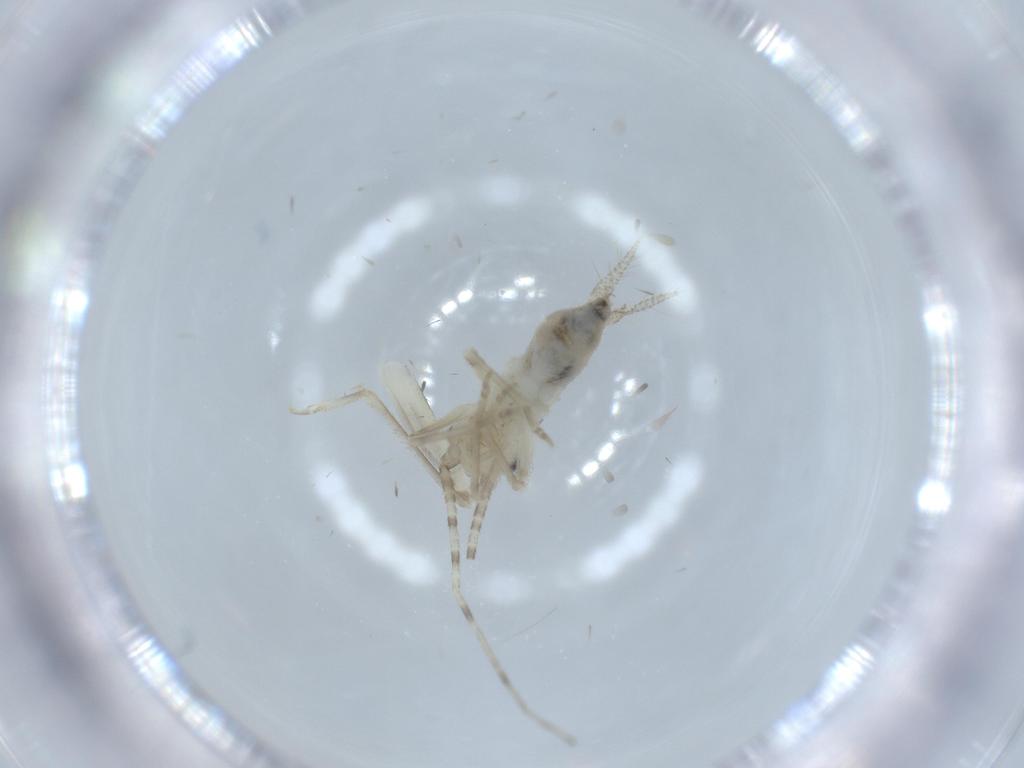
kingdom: Animalia
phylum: Arthropoda
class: Insecta
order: Orthoptera
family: Trigonidiidae
